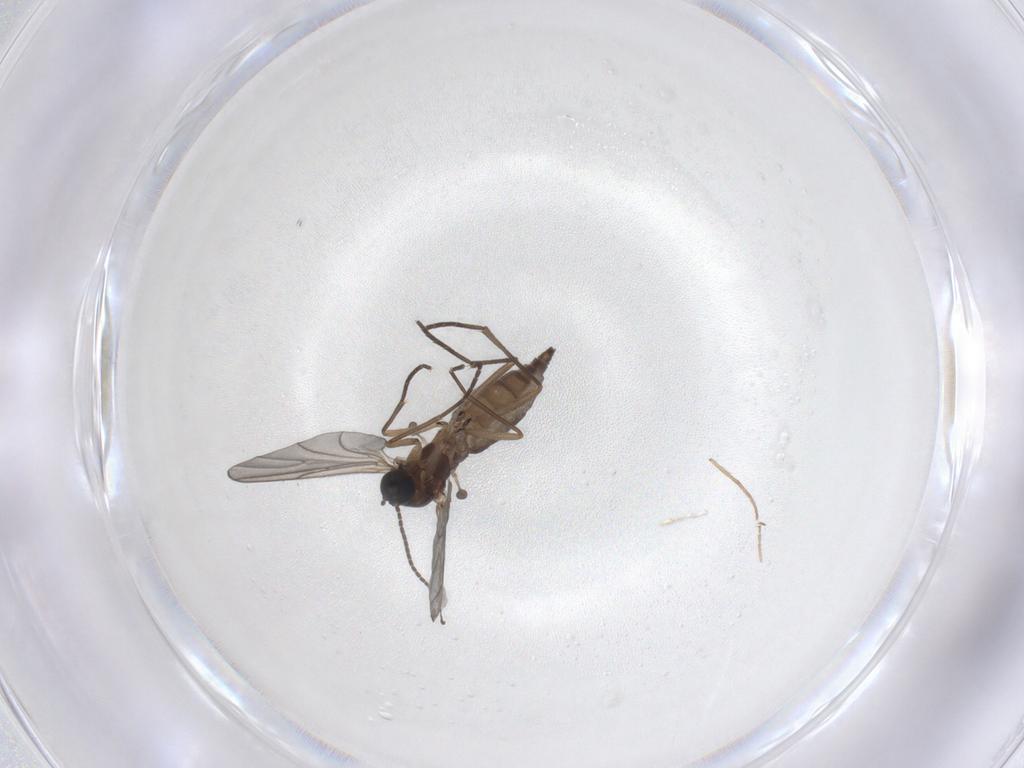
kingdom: Animalia
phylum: Arthropoda
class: Insecta
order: Diptera
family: Sciaridae
